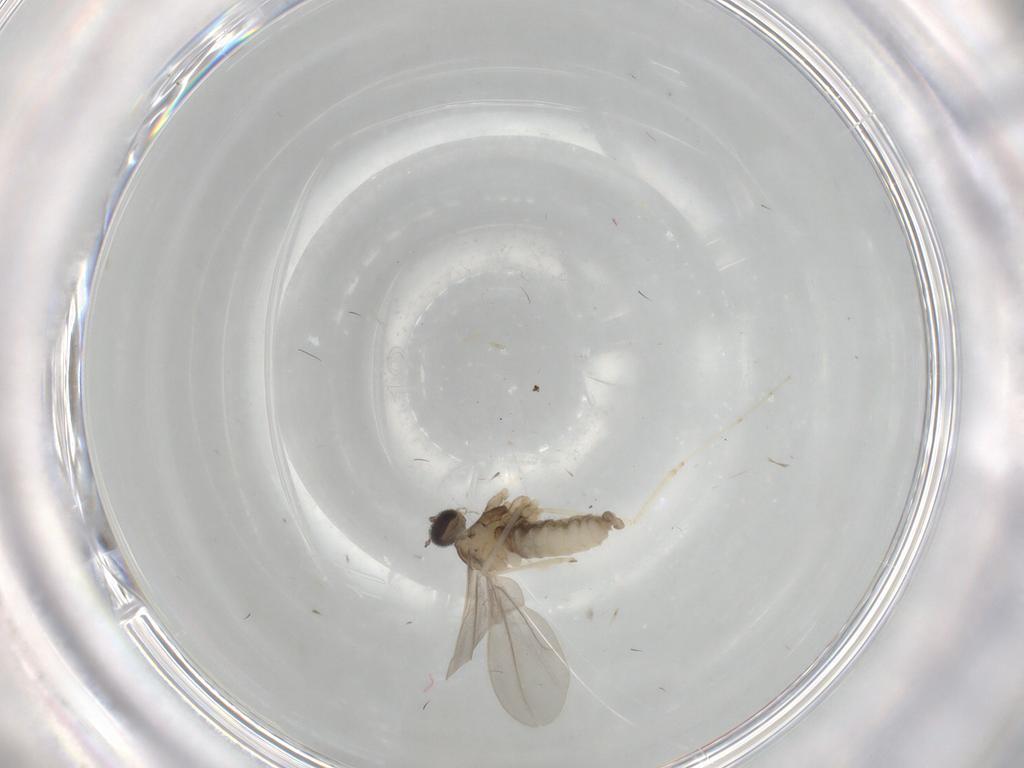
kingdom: Animalia
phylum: Arthropoda
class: Insecta
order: Diptera
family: Cecidomyiidae
